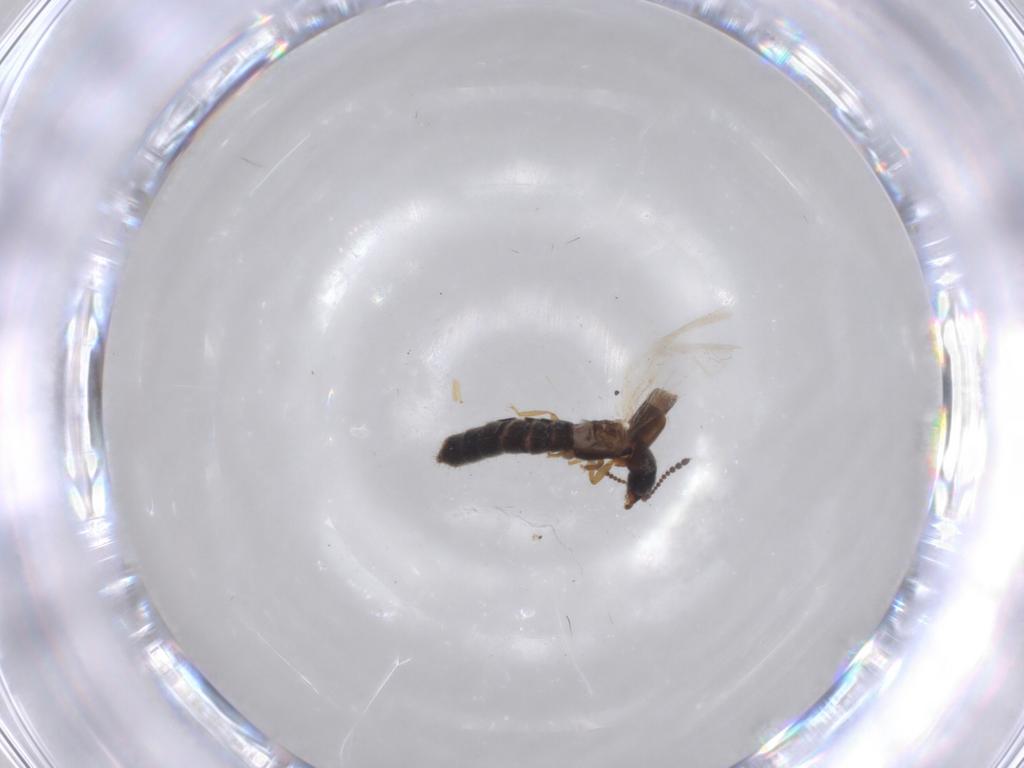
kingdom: Animalia
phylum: Arthropoda
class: Insecta
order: Coleoptera
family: Staphylinidae
